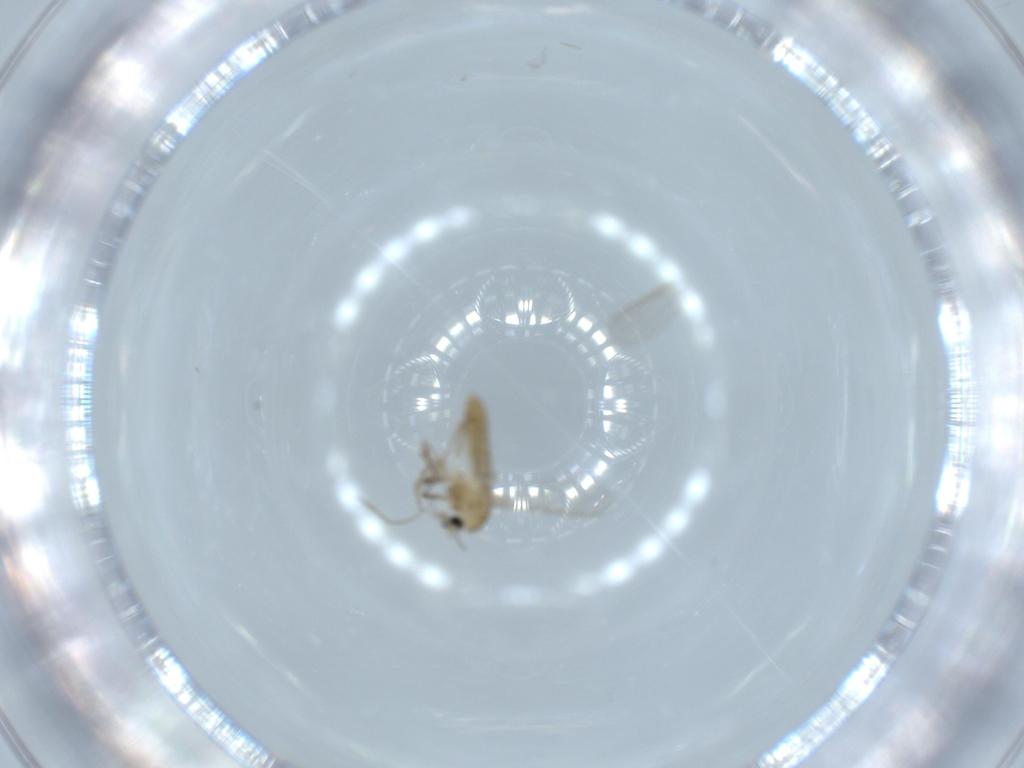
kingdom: Animalia
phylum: Arthropoda
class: Insecta
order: Diptera
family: Chironomidae
